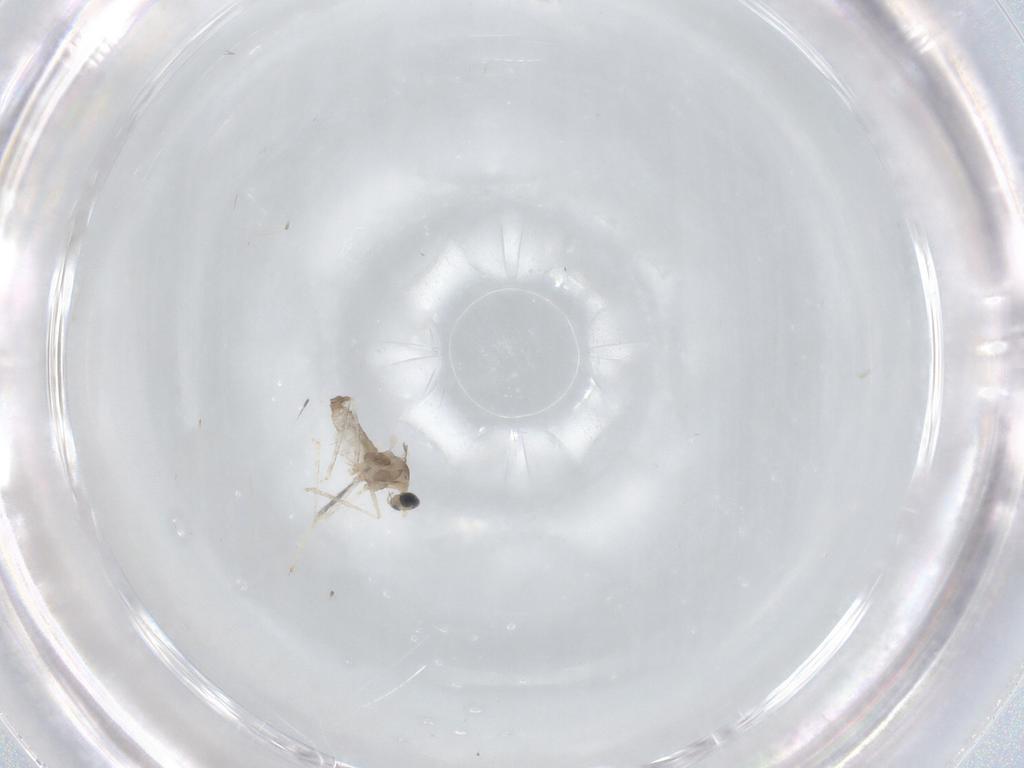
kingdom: Animalia
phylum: Arthropoda
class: Insecta
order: Diptera
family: Cecidomyiidae
